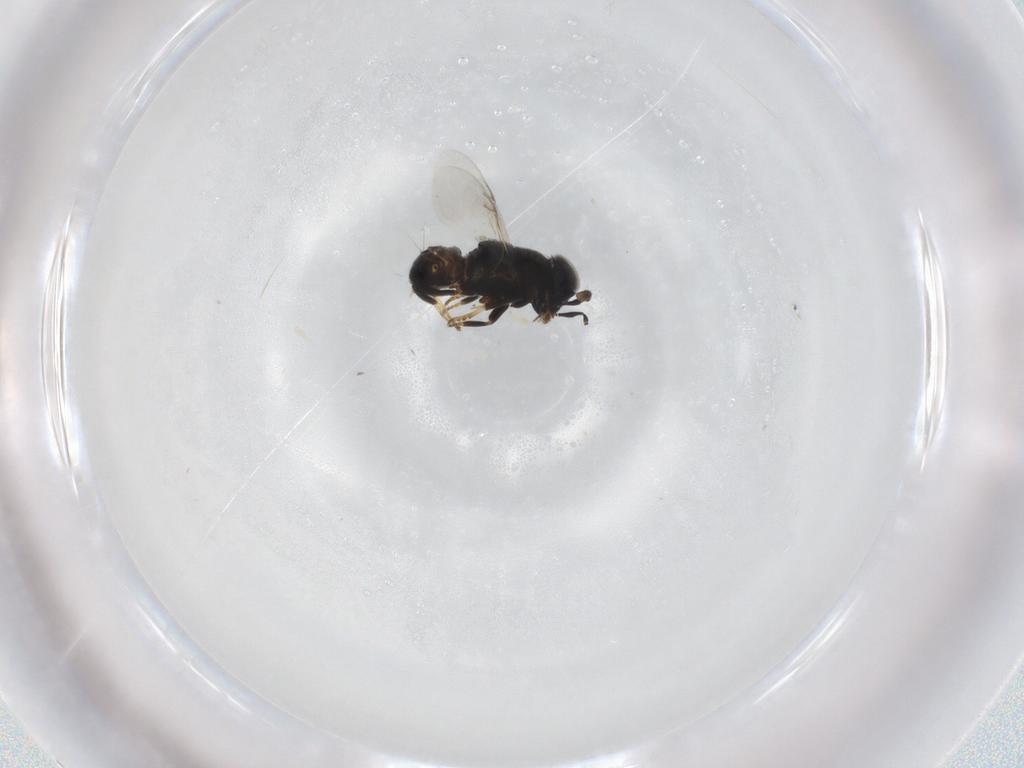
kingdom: Animalia
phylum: Arthropoda
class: Insecta
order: Hymenoptera
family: Encyrtidae
